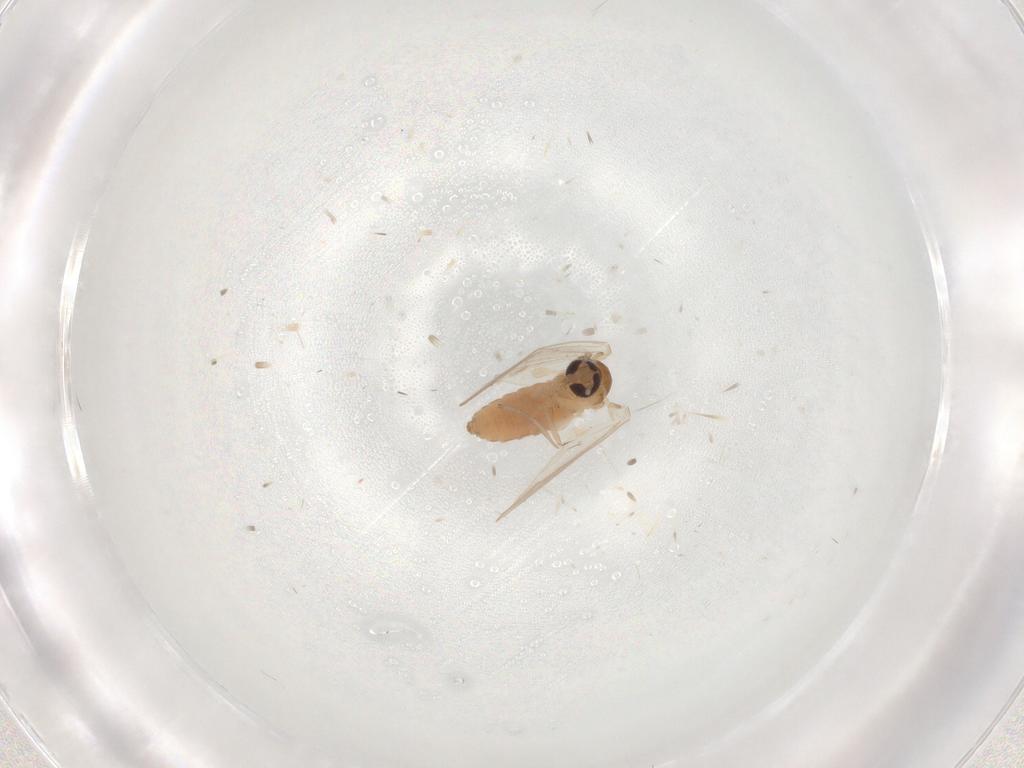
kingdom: Animalia
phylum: Arthropoda
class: Insecta
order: Diptera
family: Psychodidae
